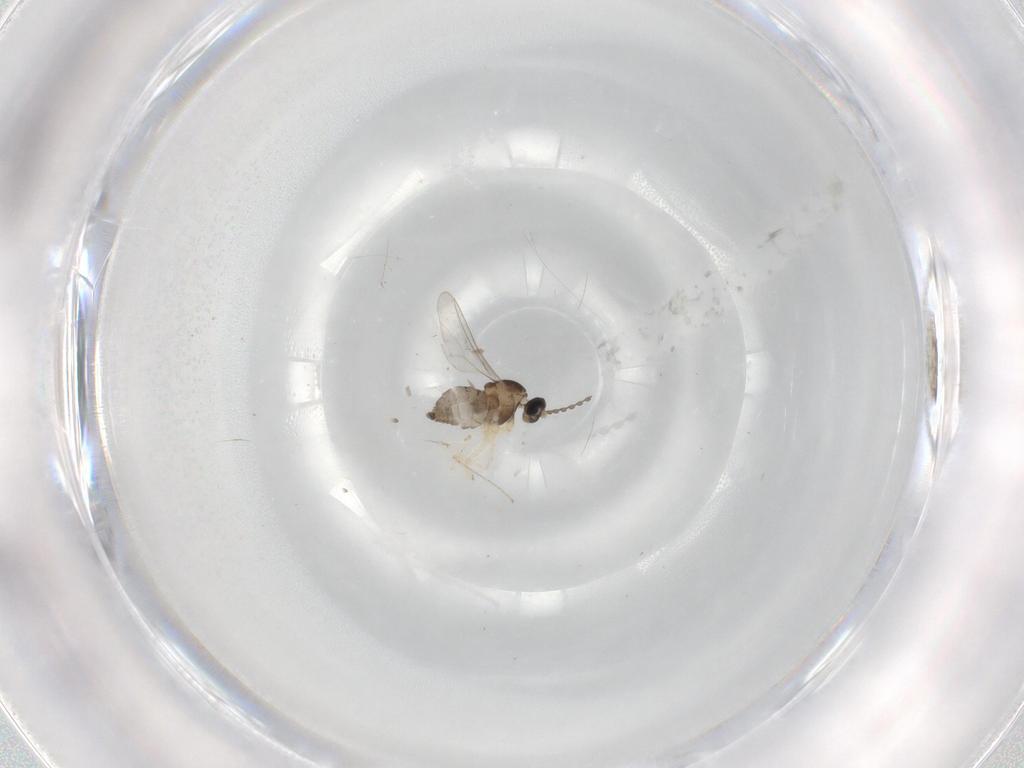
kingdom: Animalia
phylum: Arthropoda
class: Insecta
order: Diptera
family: Cecidomyiidae
